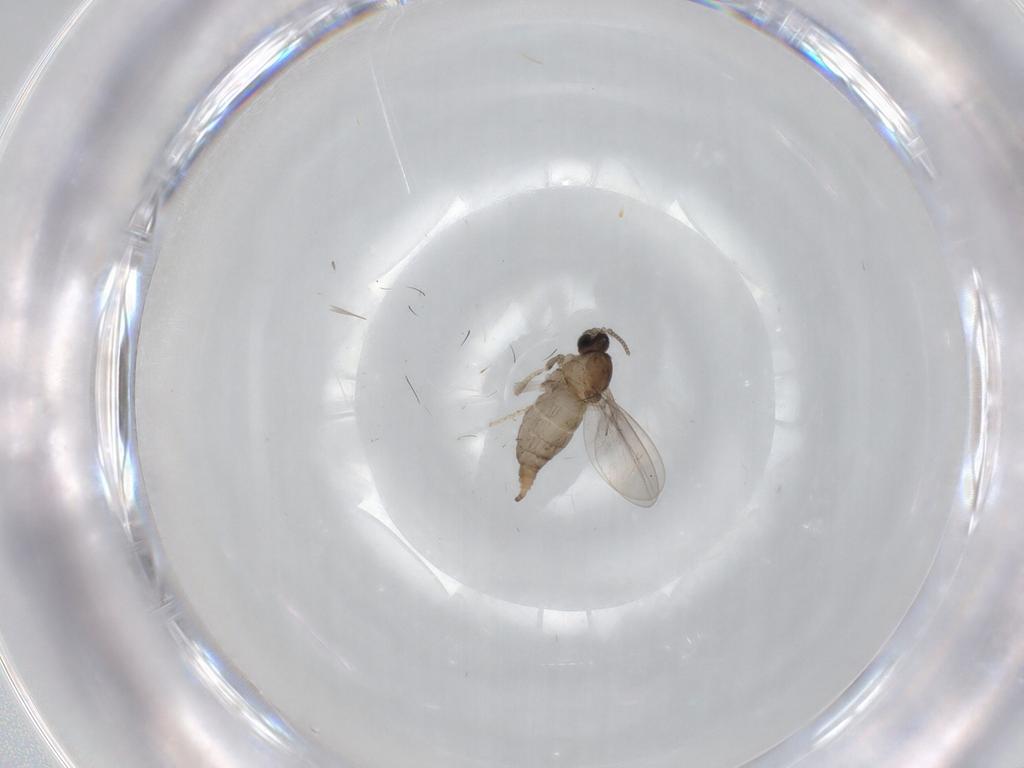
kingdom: Animalia
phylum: Arthropoda
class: Insecta
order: Diptera
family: Cecidomyiidae
